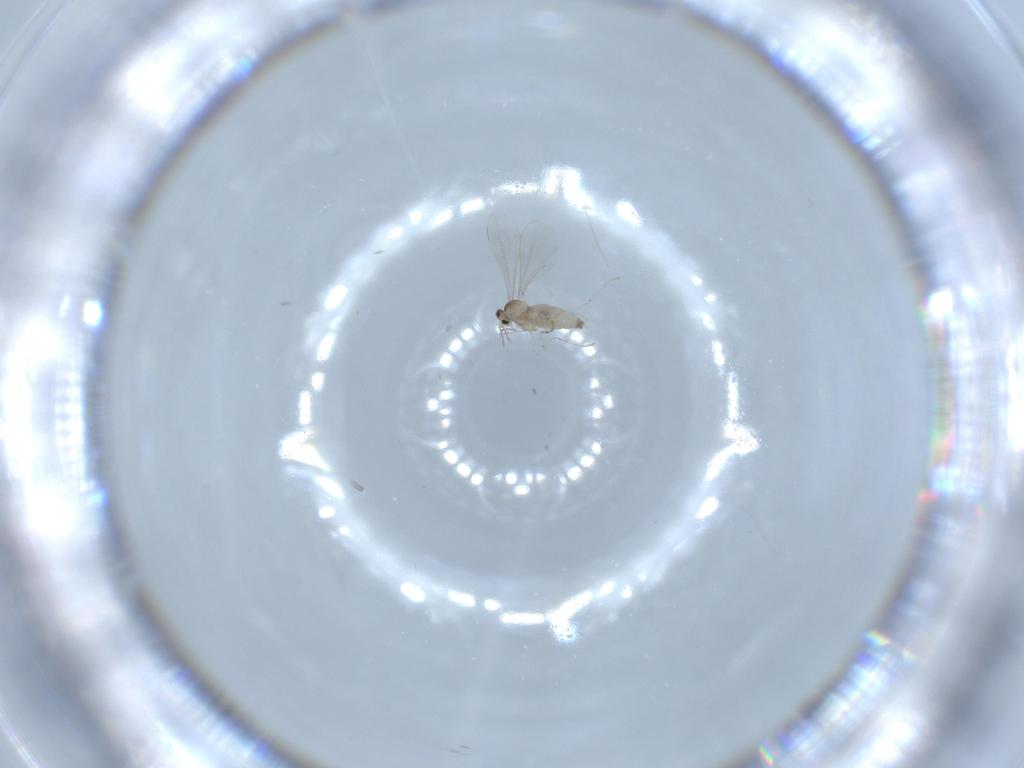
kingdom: Animalia
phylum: Arthropoda
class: Insecta
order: Diptera
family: Cecidomyiidae
